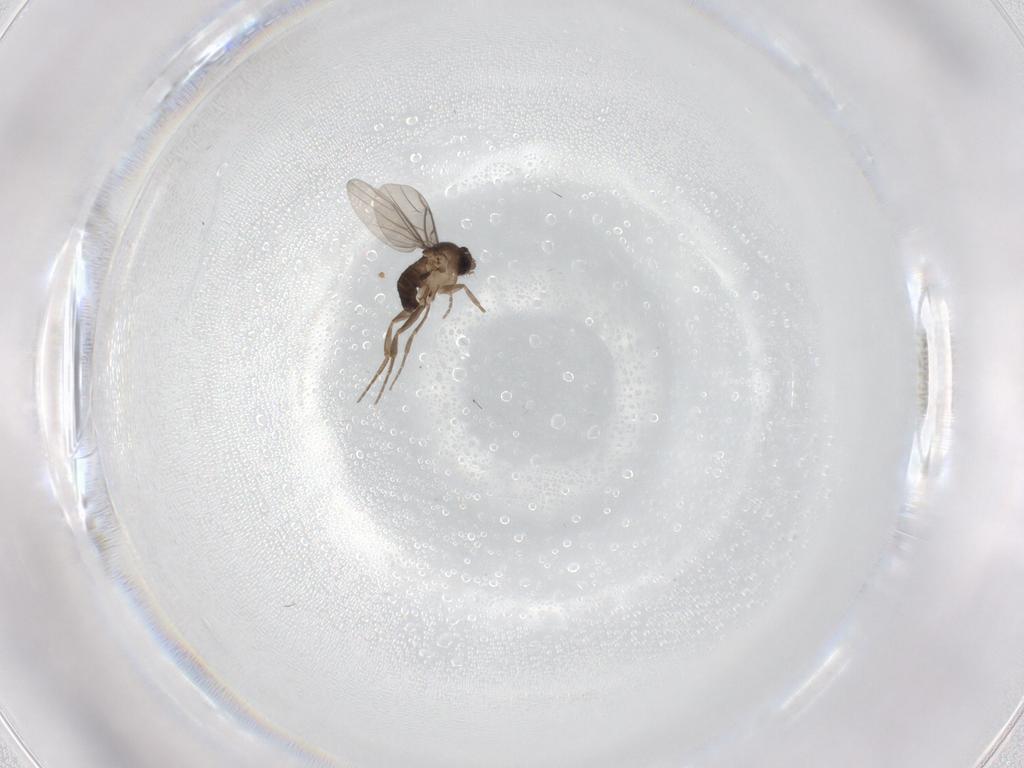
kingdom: Animalia
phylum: Arthropoda
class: Insecta
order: Diptera
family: Phoridae
